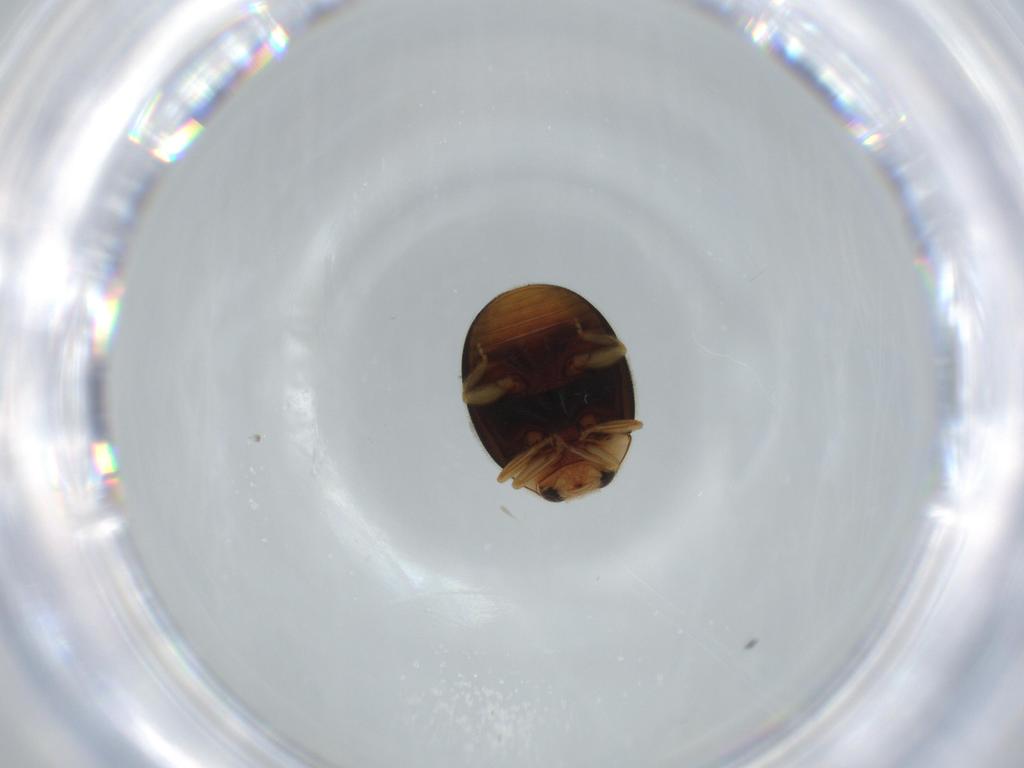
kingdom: Animalia
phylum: Arthropoda
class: Insecta
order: Coleoptera
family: Coccinellidae
